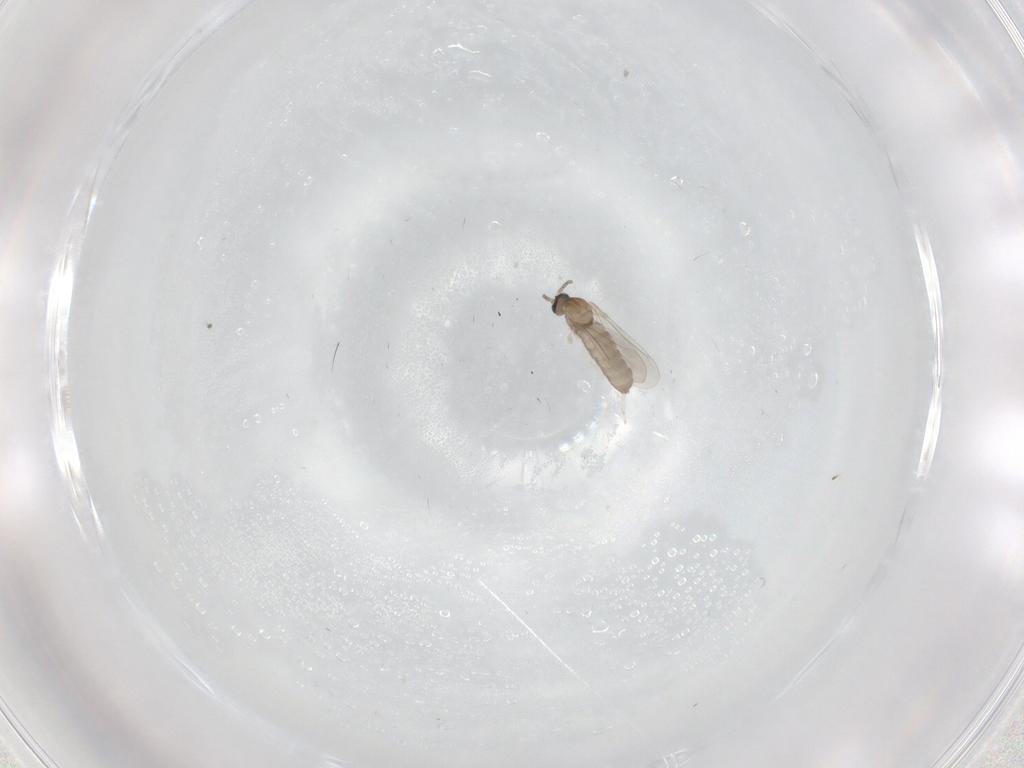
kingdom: Animalia
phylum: Arthropoda
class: Insecta
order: Diptera
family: Cecidomyiidae
